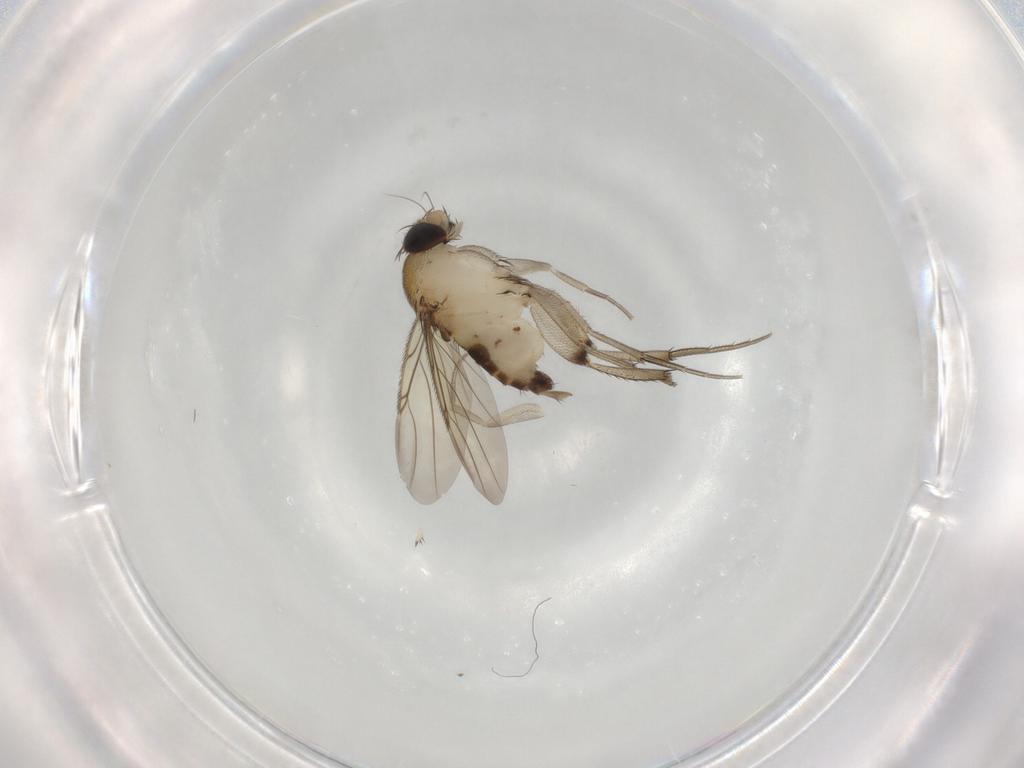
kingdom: Animalia
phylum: Arthropoda
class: Insecta
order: Diptera
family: Phoridae
